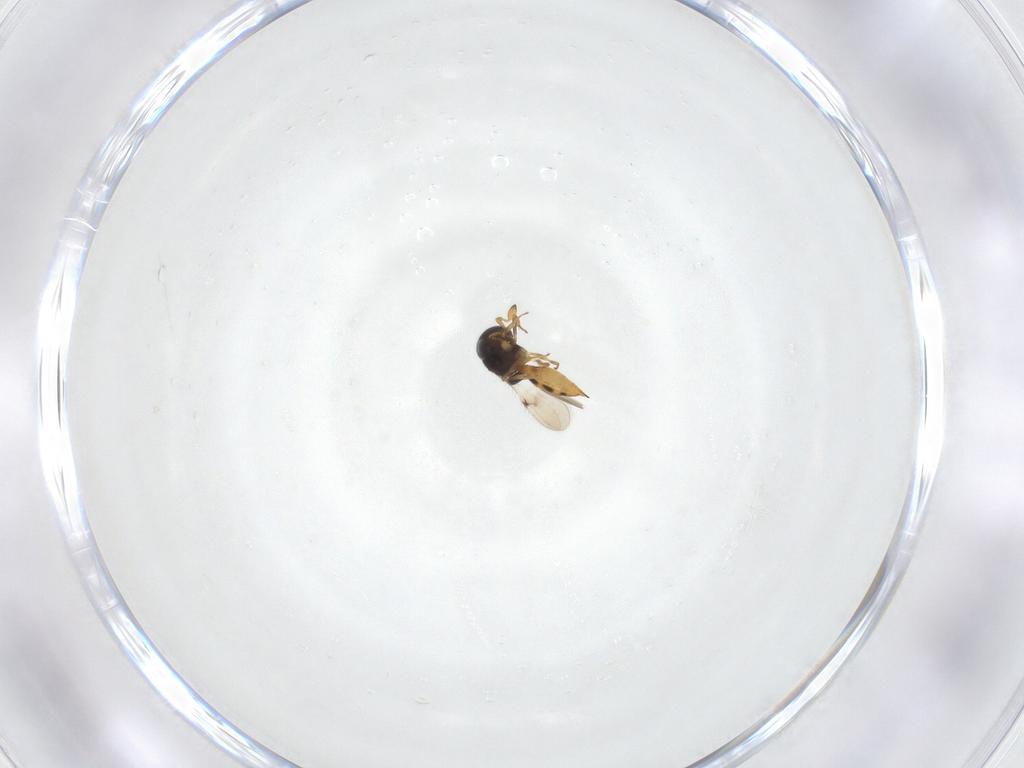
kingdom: Animalia
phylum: Arthropoda
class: Insecta
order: Hymenoptera
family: Scelionidae
